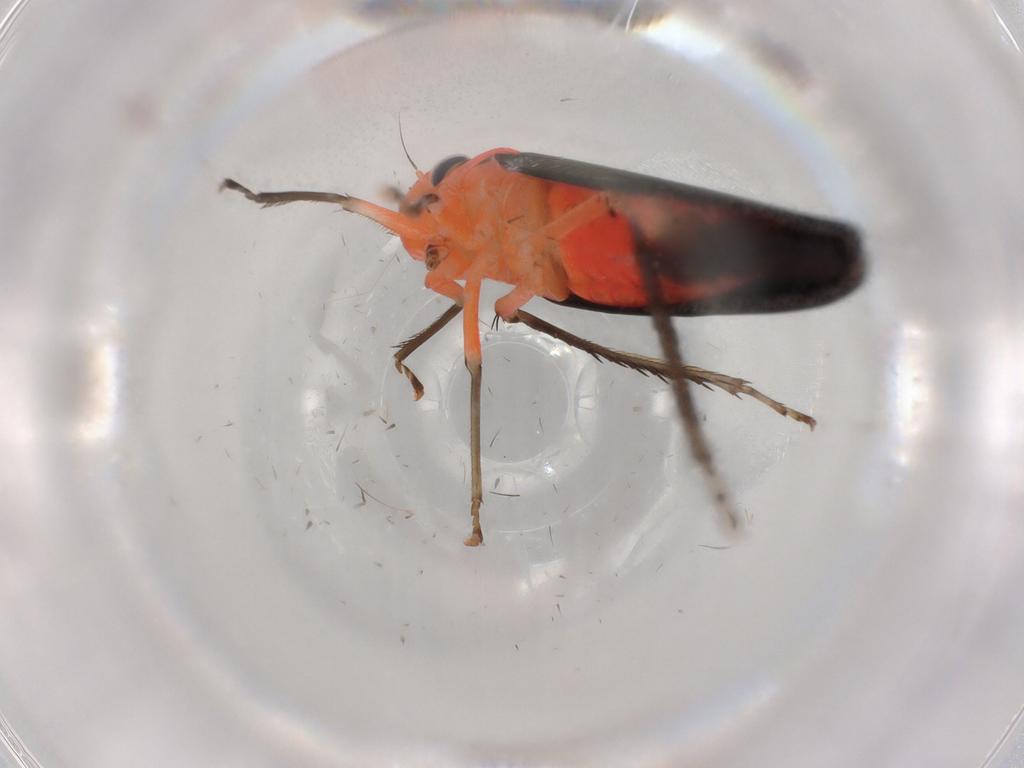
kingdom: Animalia
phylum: Arthropoda
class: Insecta
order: Hemiptera
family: Cicadellidae
